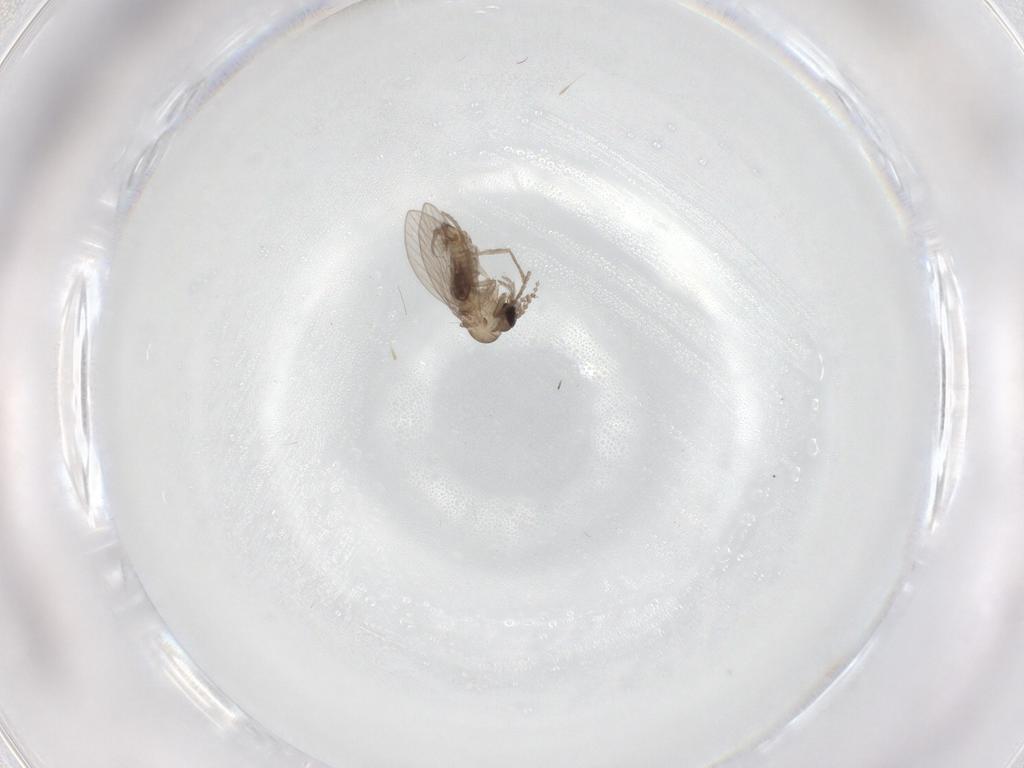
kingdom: Animalia
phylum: Arthropoda
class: Insecta
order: Diptera
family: Psychodidae
